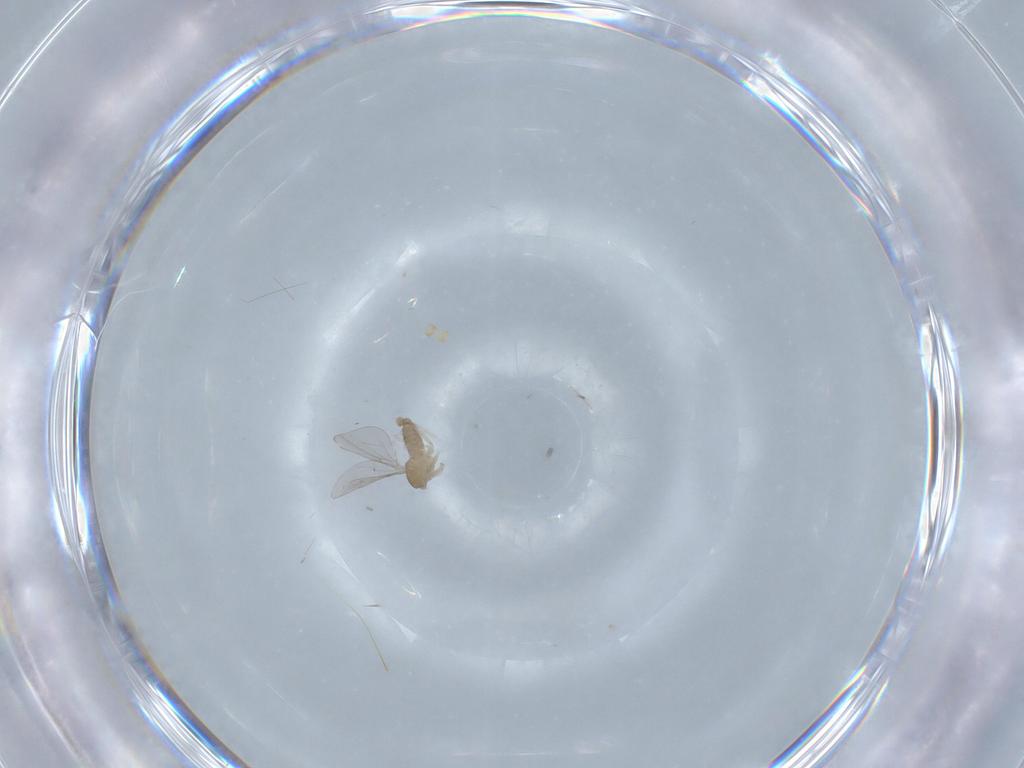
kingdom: Animalia
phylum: Arthropoda
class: Insecta
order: Diptera
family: Cecidomyiidae
